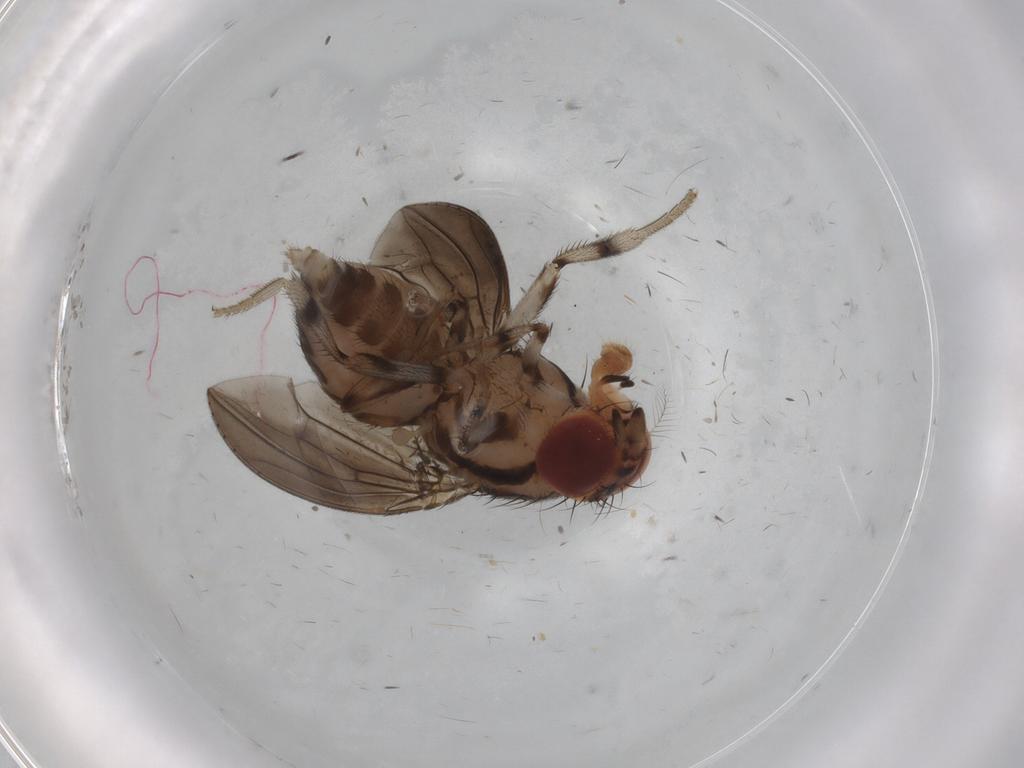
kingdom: Animalia
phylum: Arthropoda
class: Insecta
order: Diptera
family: Cecidomyiidae
